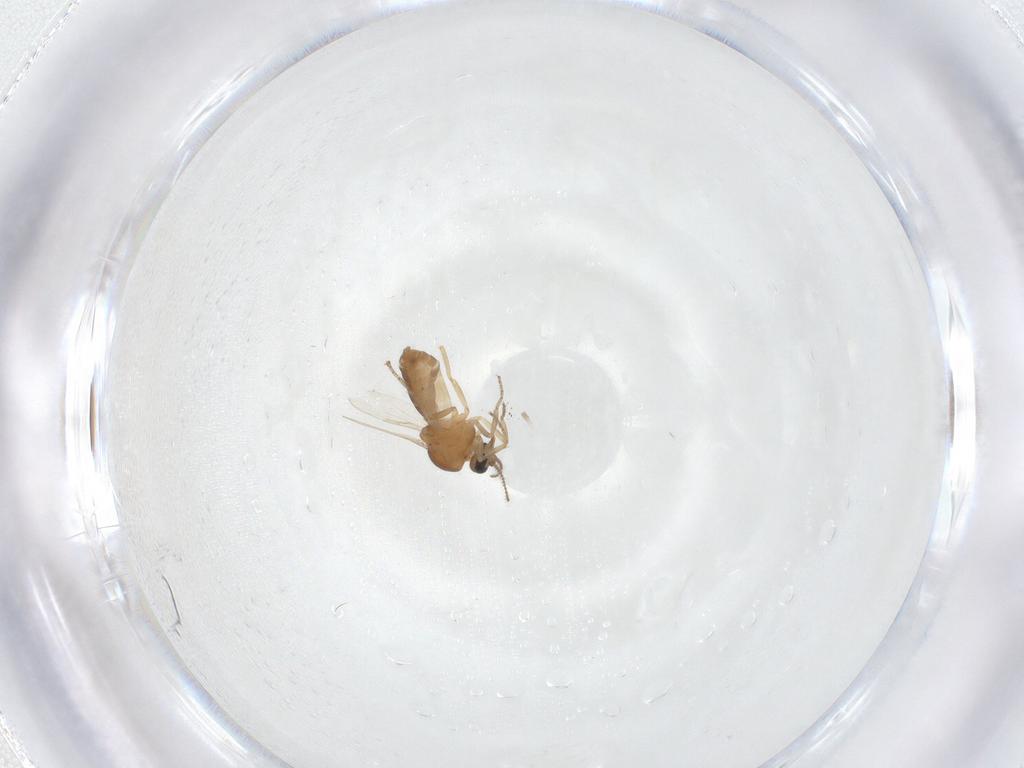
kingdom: Animalia
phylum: Arthropoda
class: Insecta
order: Diptera
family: Ceratopogonidae
